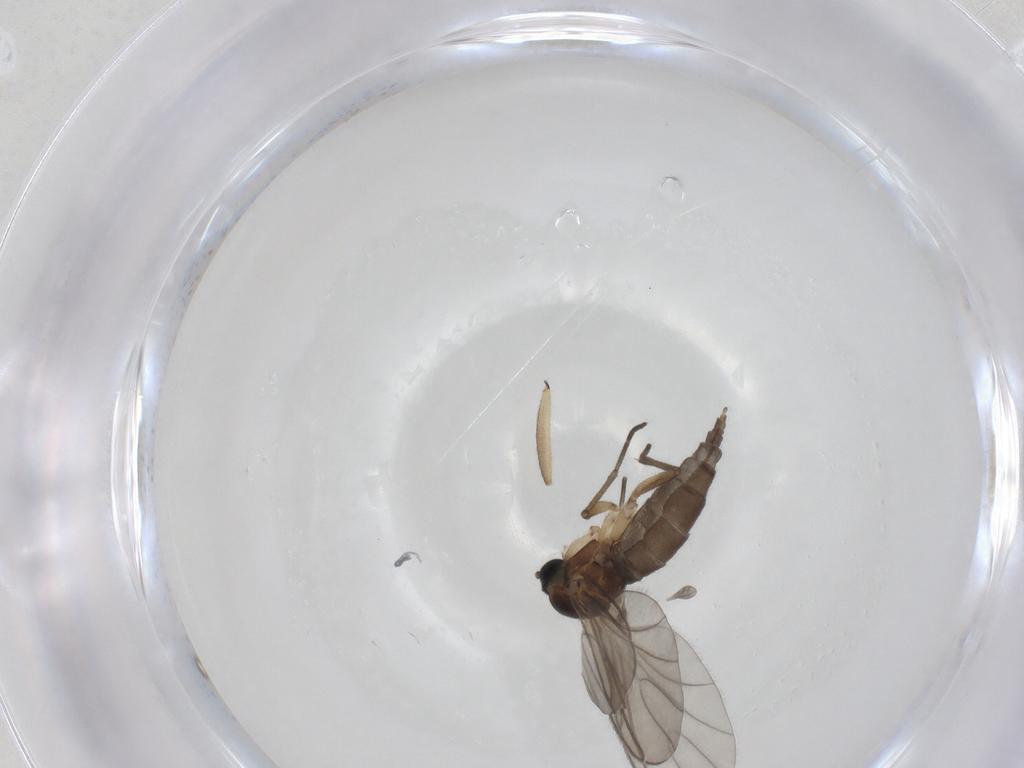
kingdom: Animalia
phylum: Arthropoda
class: Insecta
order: Diptera
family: Sciaridae
